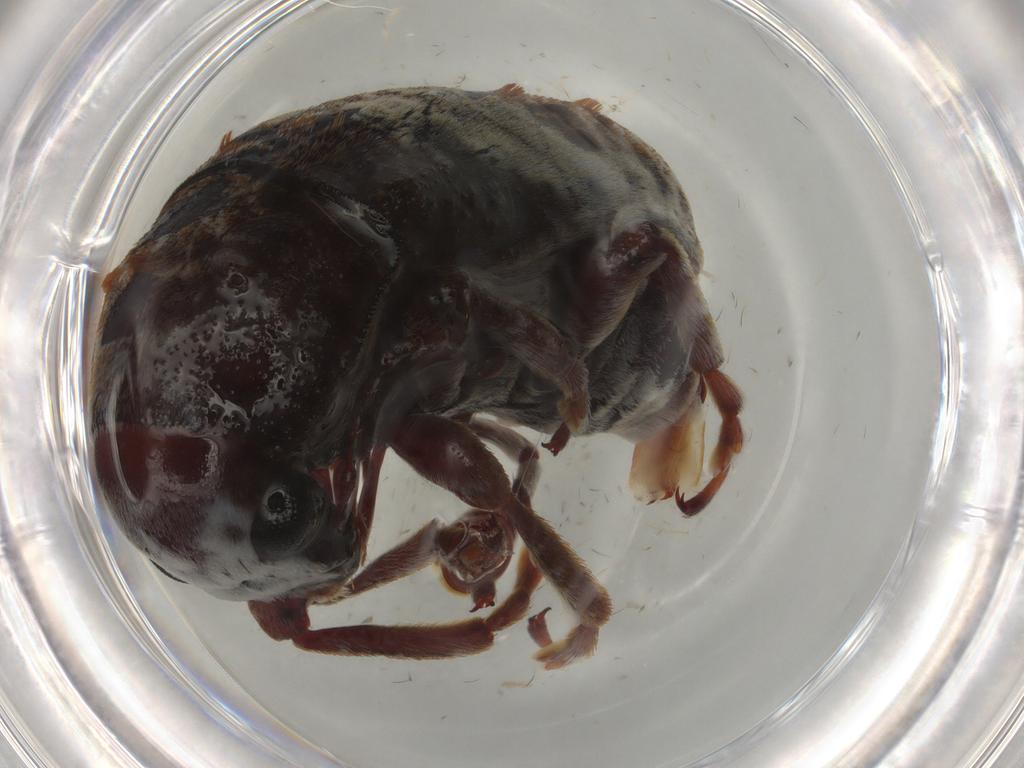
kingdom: Animalia
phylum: Arthropoda
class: Insecta
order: Coleoptera
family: Anthribidae
